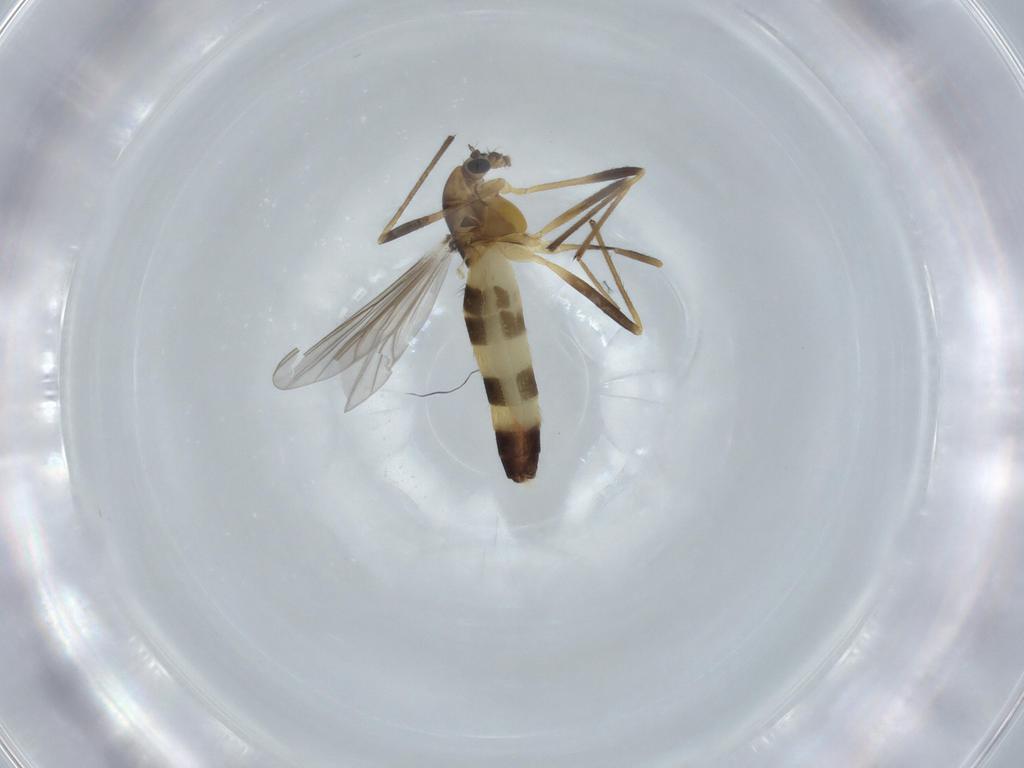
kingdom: Animalia
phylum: Arthropoda
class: Insecta
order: Diptera
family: Chironomidae
